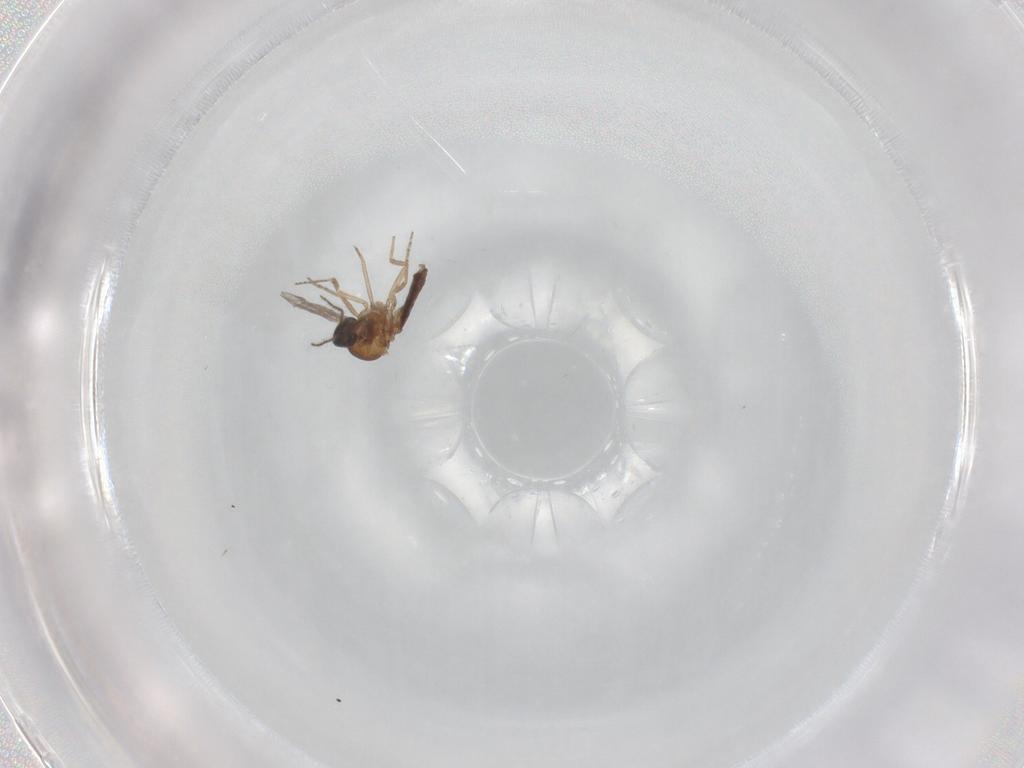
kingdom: Animalia
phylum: Arthropoda
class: Insecta
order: Diptera
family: Cecidomyiidae
